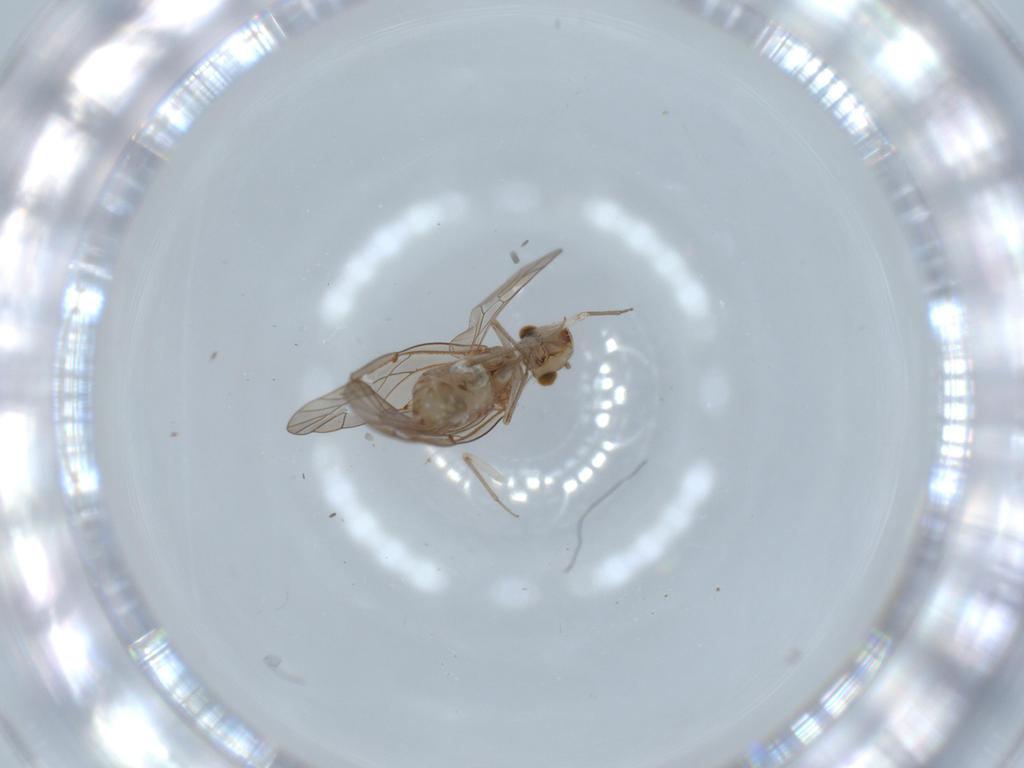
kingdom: Animalia
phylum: Arthropoda
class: Insecta
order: Psocodea
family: Lachesillidae
